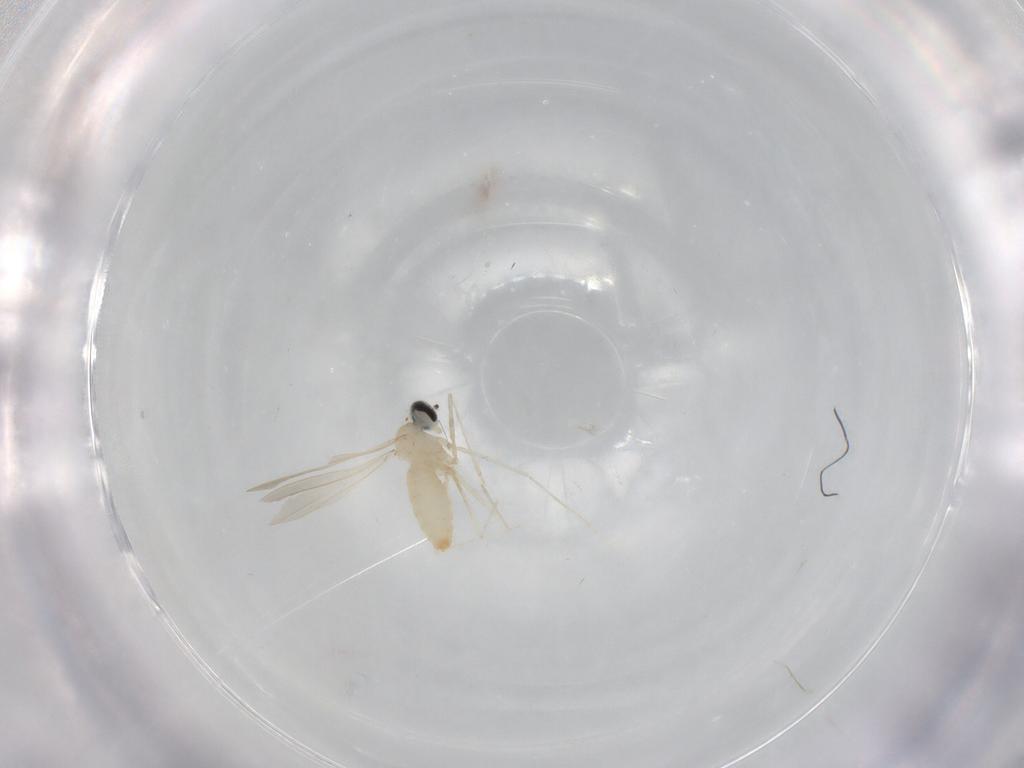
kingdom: Animalia
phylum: Arthropoda
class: Insecta
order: Diptera
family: Cecidomyiidae
